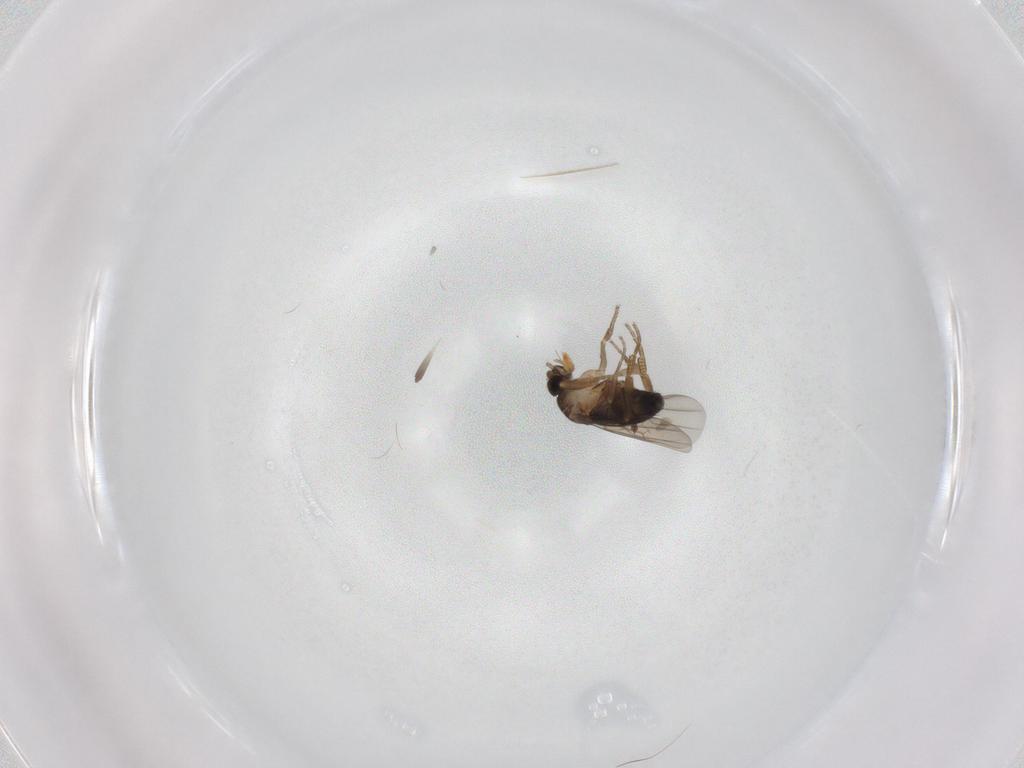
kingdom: Animalia
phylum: Arthropoda
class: Insecta
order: Diptera
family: Phoridae
